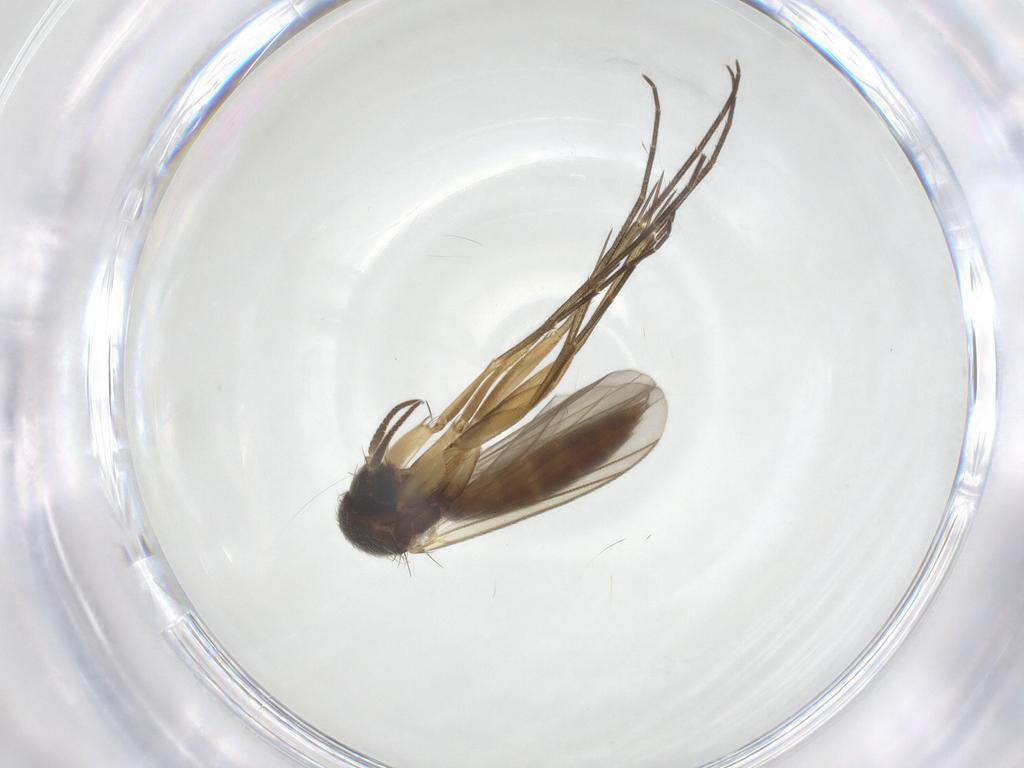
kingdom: Animalia
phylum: Arthropoda
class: Insecta
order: Diptera
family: Mycetophilidae
